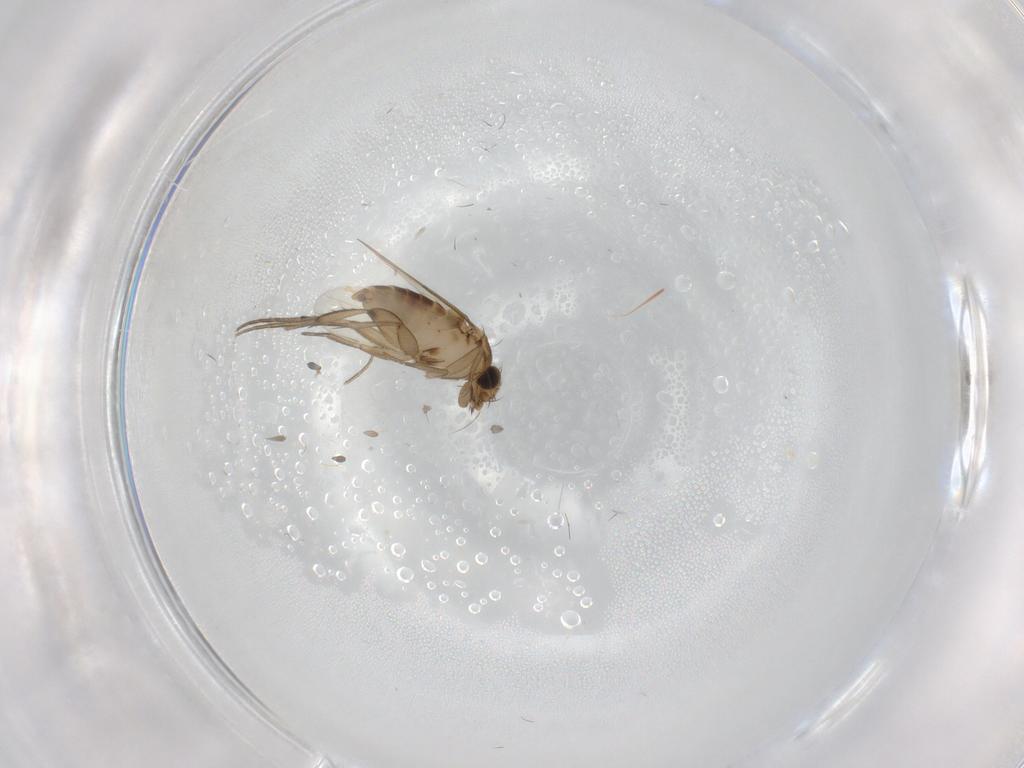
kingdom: Animalia
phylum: Arthropoda
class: Insecta
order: Diptera
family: Phoridae
